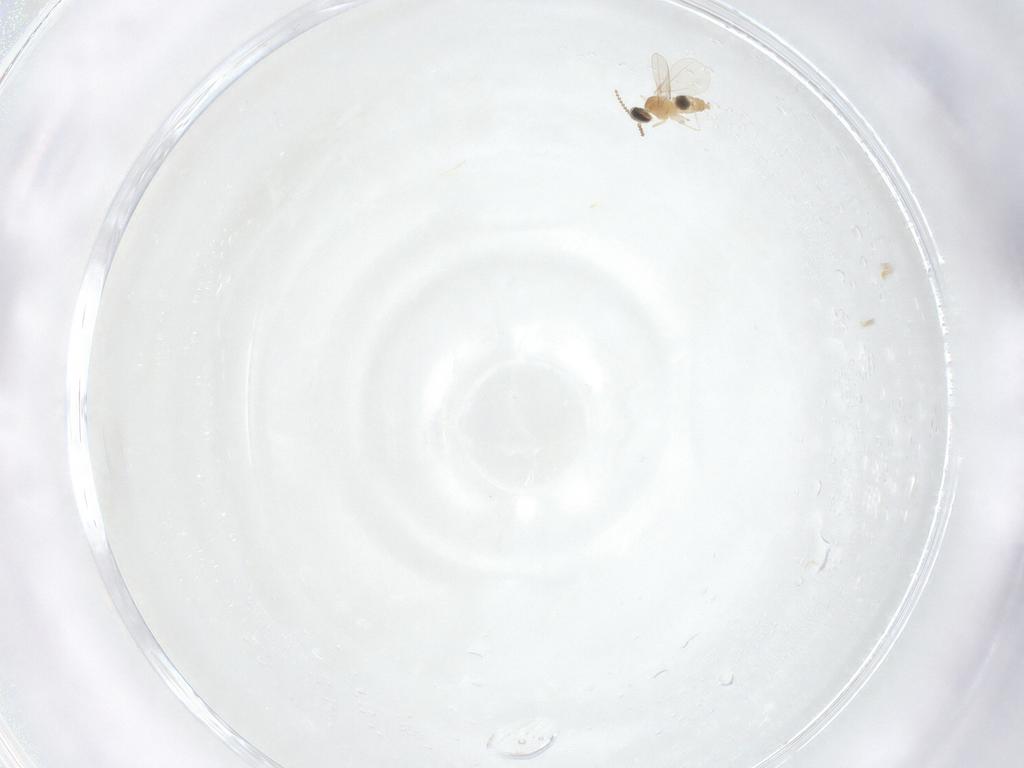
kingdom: Animalia
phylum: Arthropoda
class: Insecta
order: Diptera
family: Cecidomyiidae
